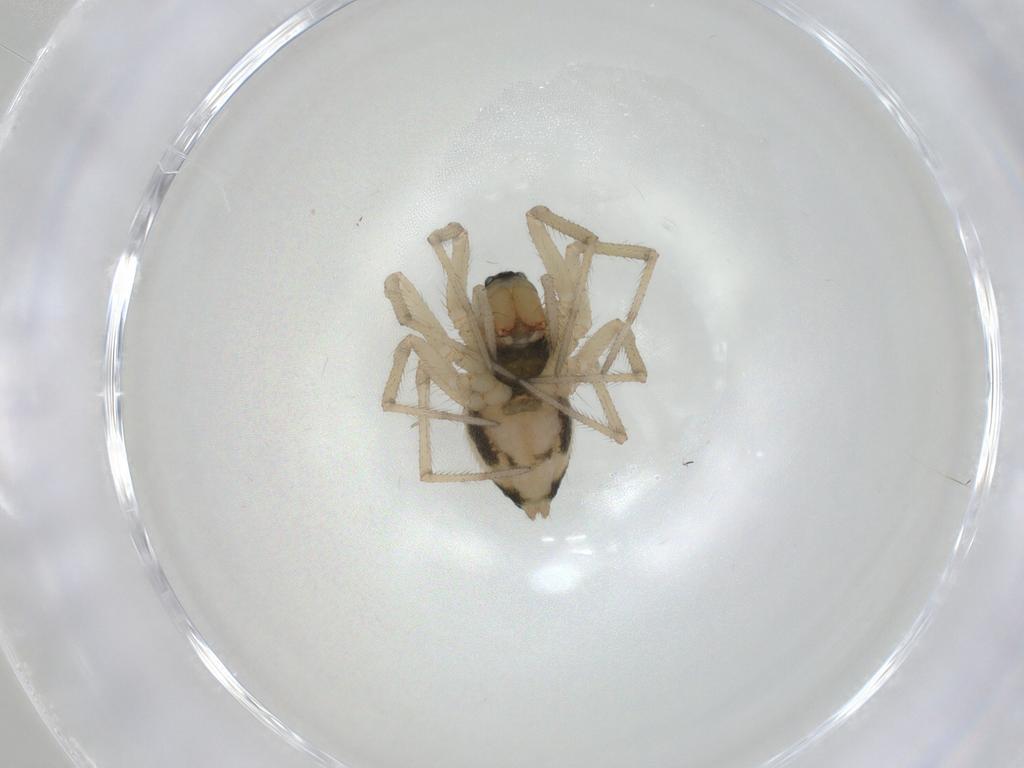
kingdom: Animalia
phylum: Arthropoda
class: Arachnida
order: Araneae
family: Linyphiidae
